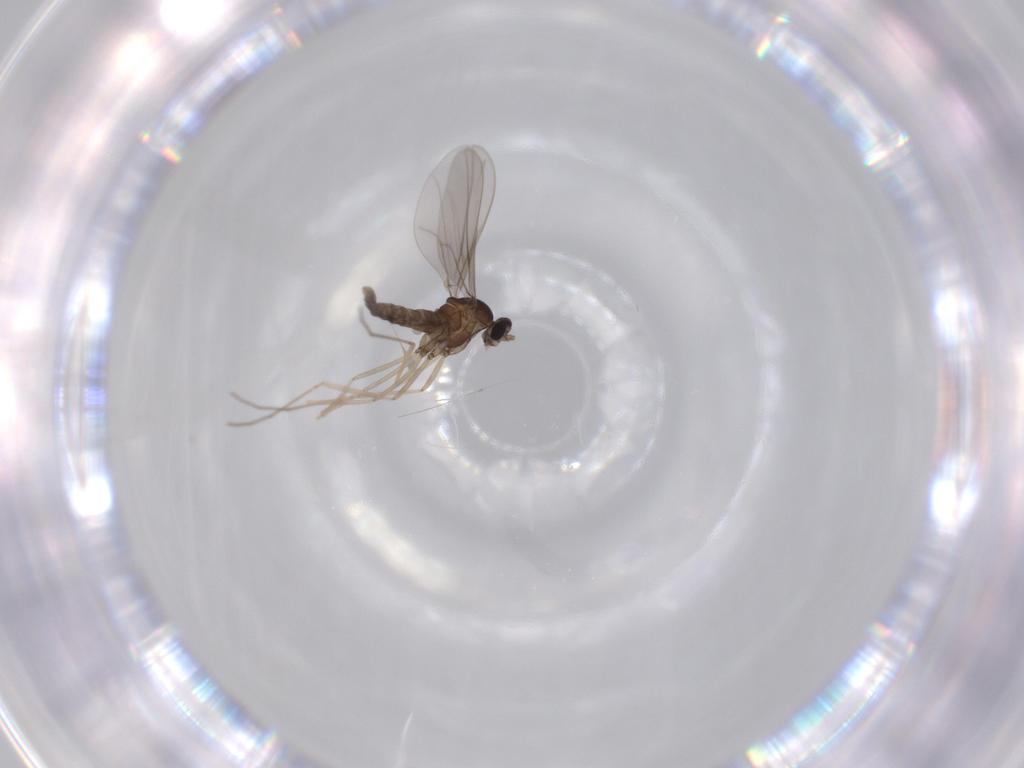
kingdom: Animalia
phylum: Arthropoda
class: Insecta
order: Diptera
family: Cecidomyiidae
